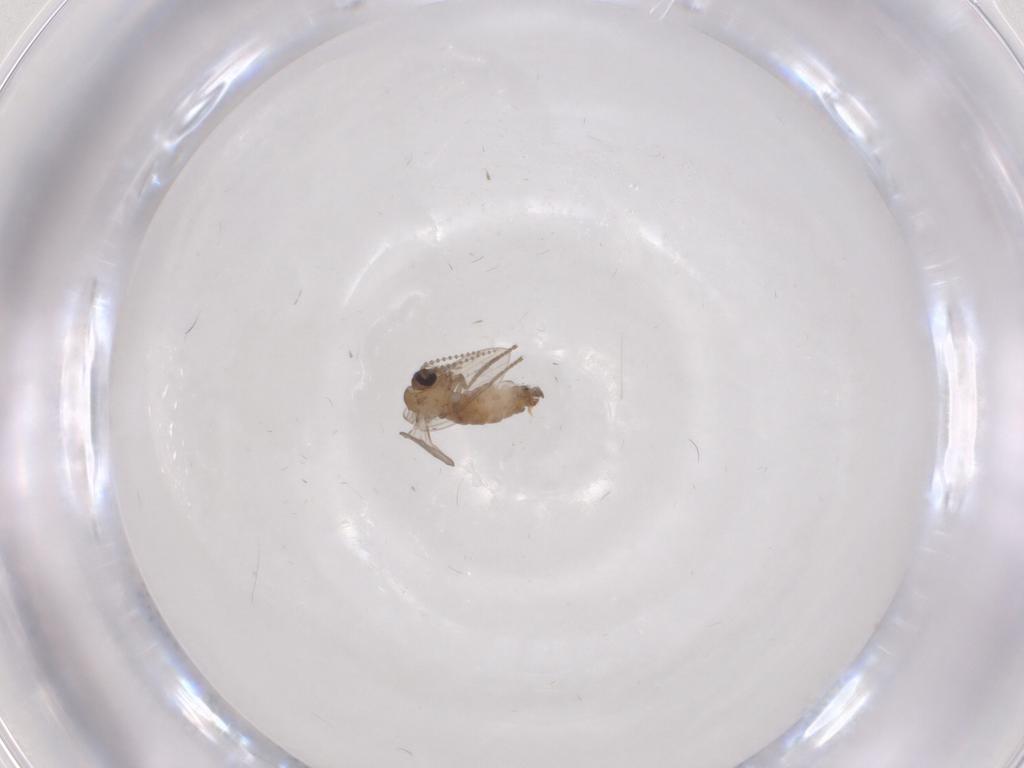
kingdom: Animalia
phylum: Arthropoda
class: Insecta
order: Diptera
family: Psychodidae
